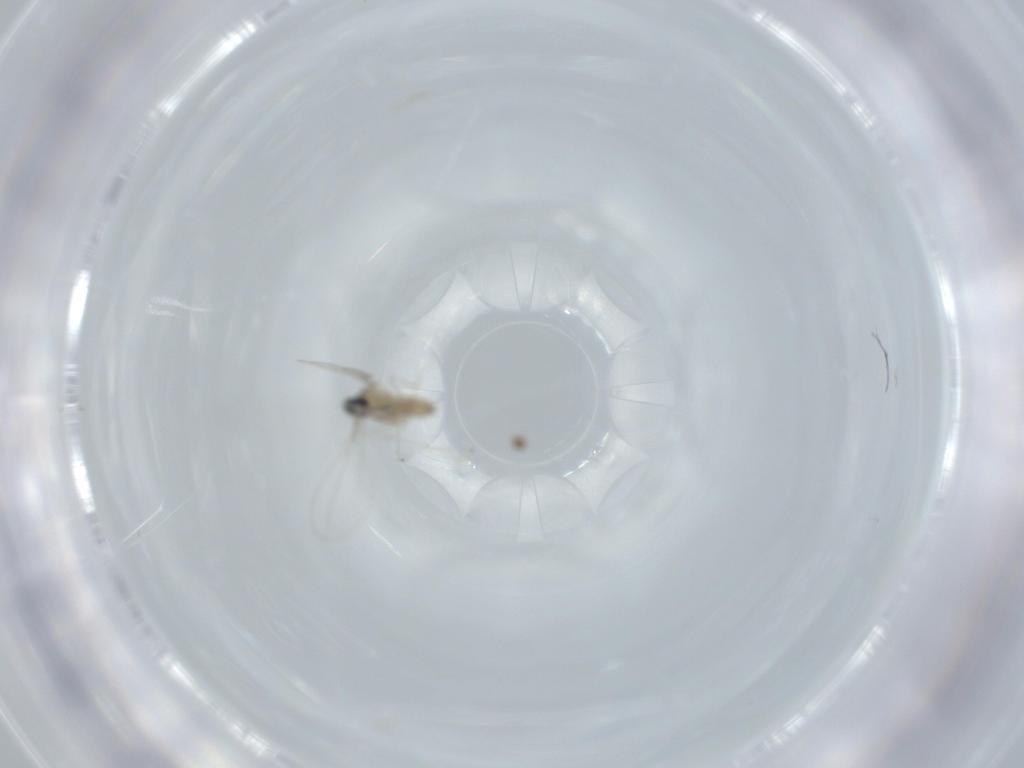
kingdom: Animalia
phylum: Arthropoda
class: Insecta
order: Diptera
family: Cecidomyiidae
